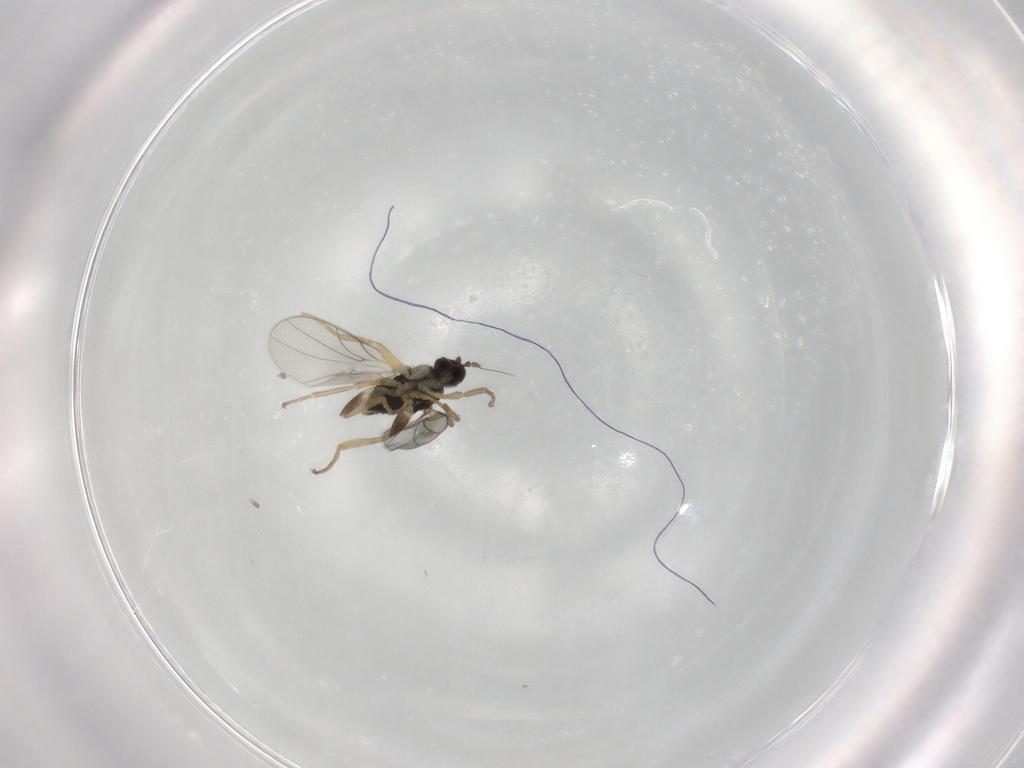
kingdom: Animalia
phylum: Arthropoda
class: Insecta
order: Diptera
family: Hybotidae
